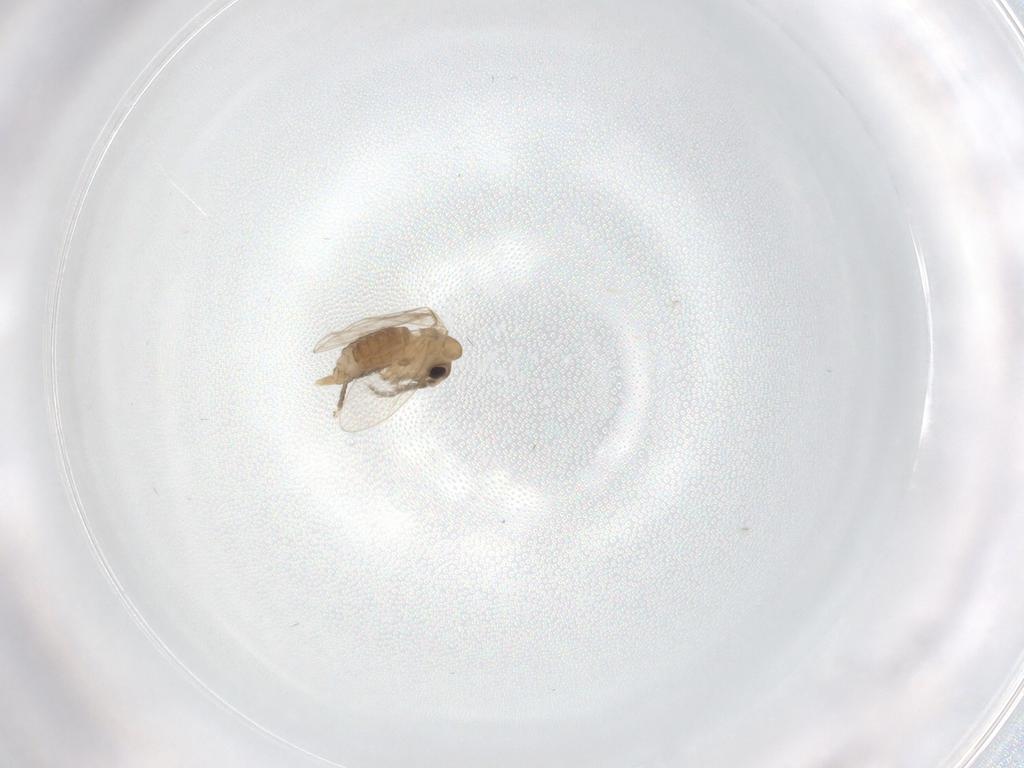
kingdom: Animalia
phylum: Arthropoda
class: Insecta
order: Diptera
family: Psychodidae
